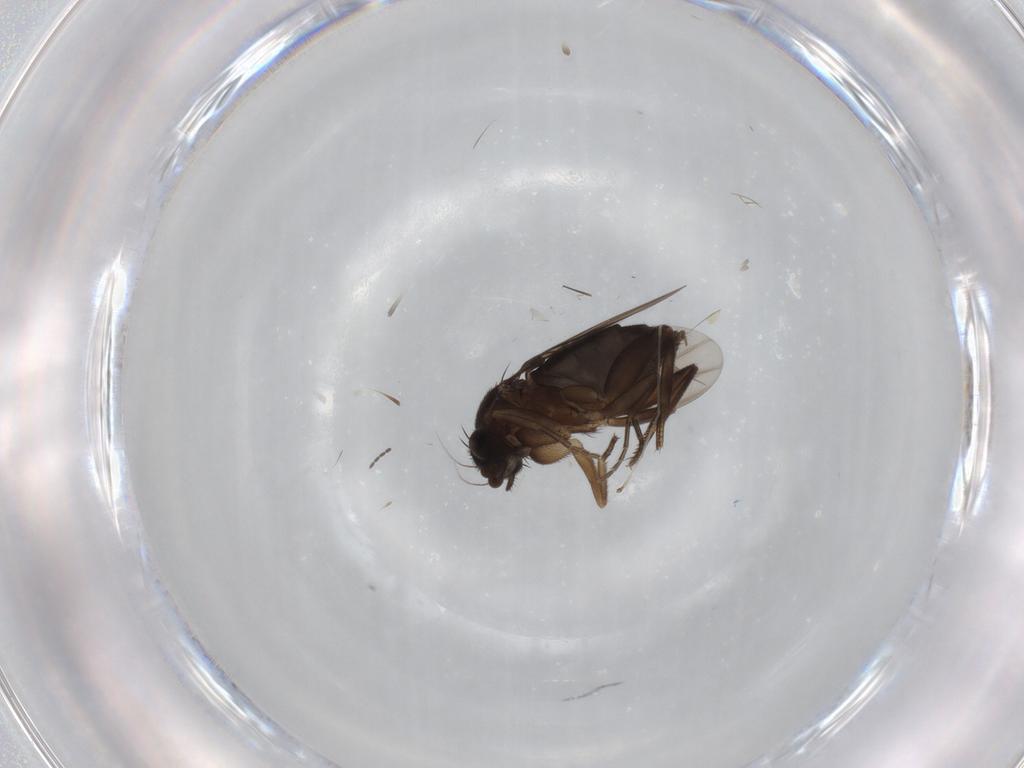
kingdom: Animalia
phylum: Arthropoda
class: Insecta
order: Diptera
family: Phoridae
